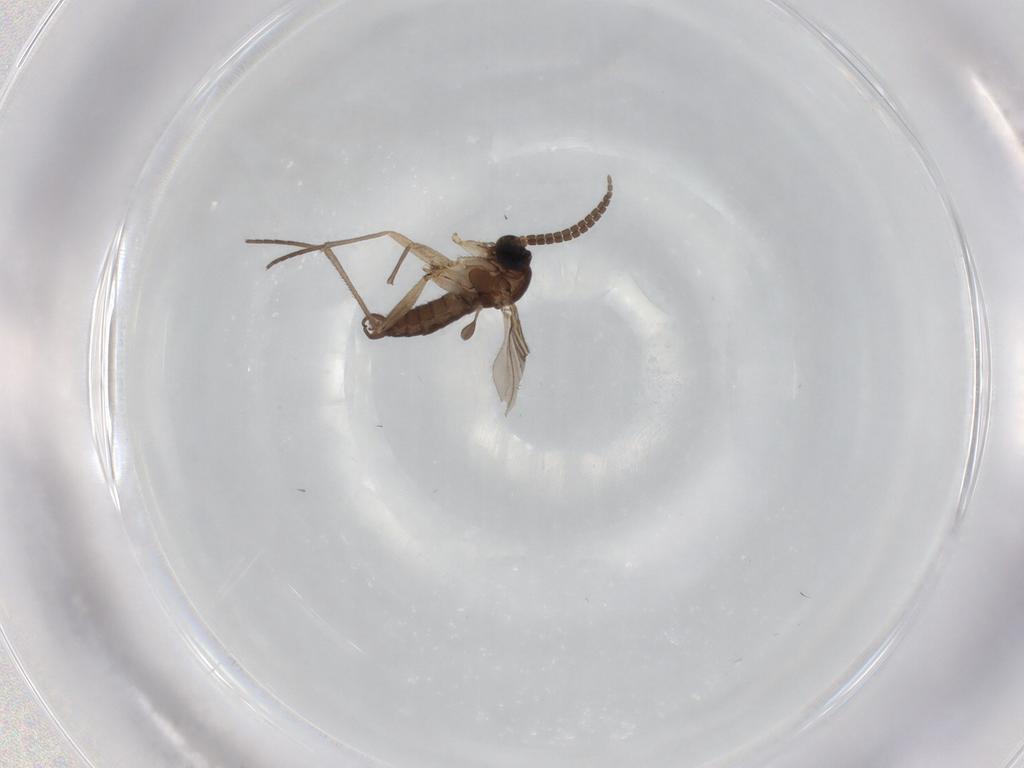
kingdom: Animalia
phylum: Arthropoda
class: Insecta
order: Diptera
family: Sciaridae
